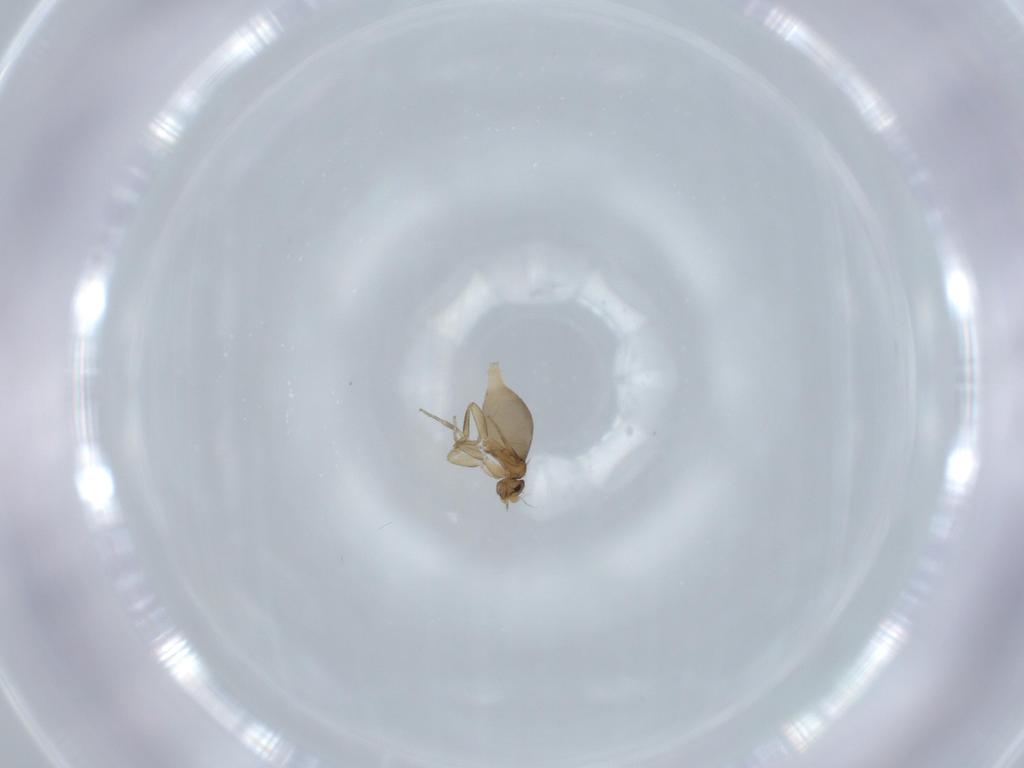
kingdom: Animalia
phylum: Arthropoda
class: Insecta
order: Diptera
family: Phoridae
